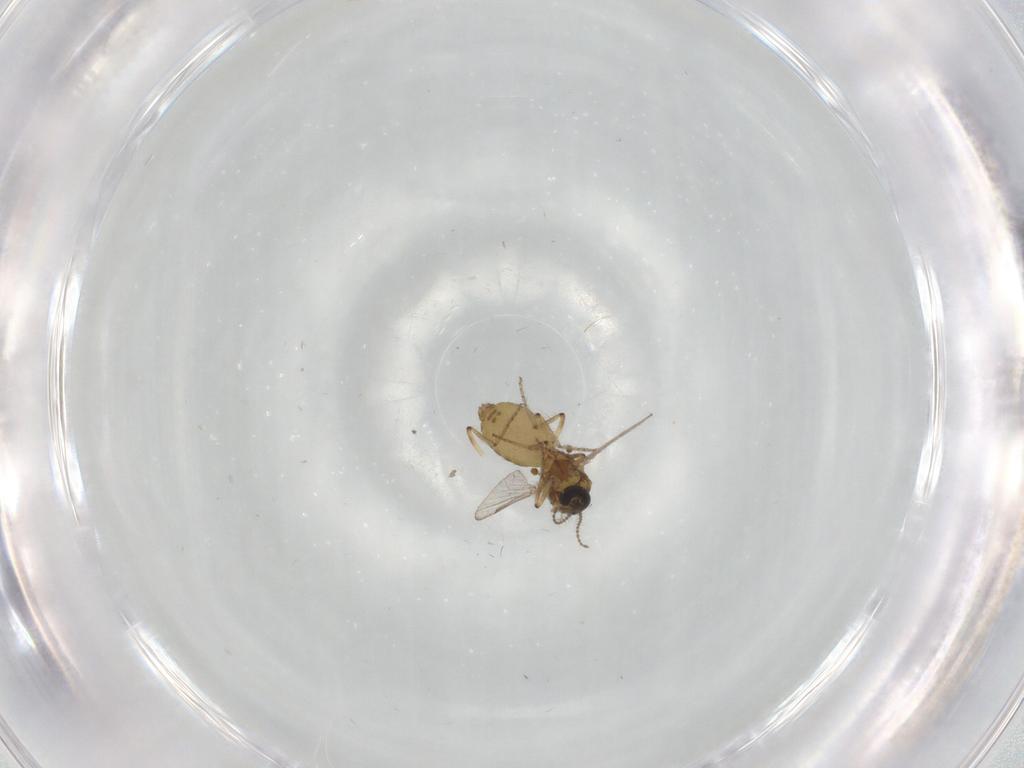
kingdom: Animalia
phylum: Arthropoda
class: Insecta
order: Diptera
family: Ceratopogonidae
